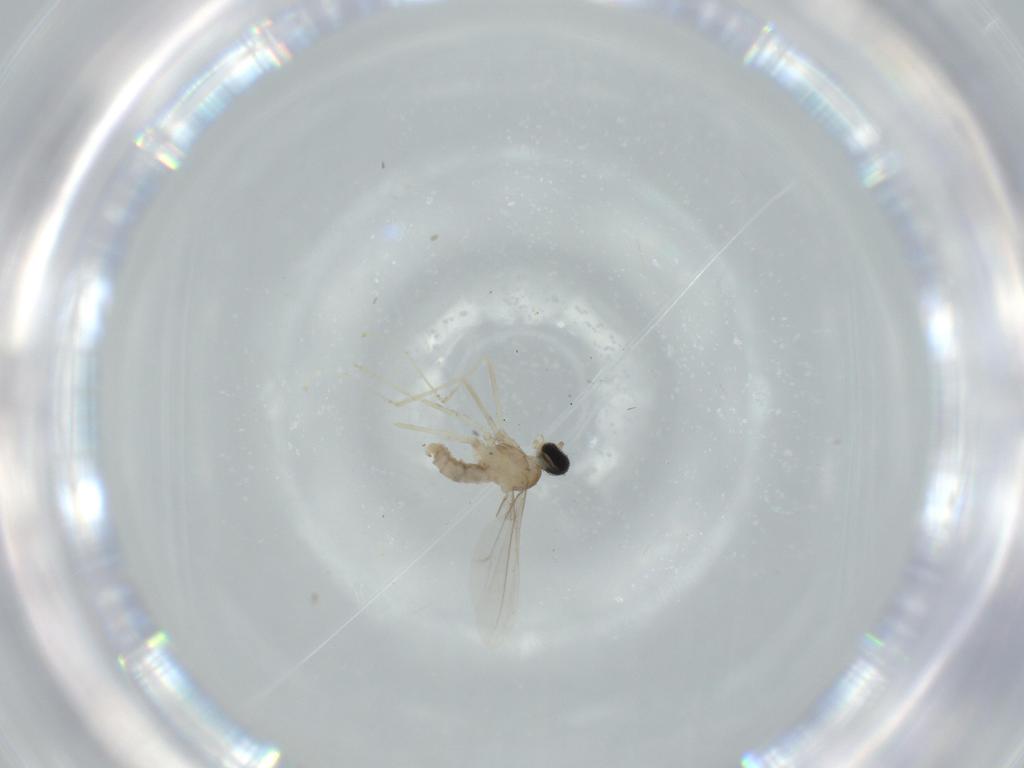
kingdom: Animalia
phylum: Arthropoda
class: Insecta
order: Diptera
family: Cecidomyiidae
